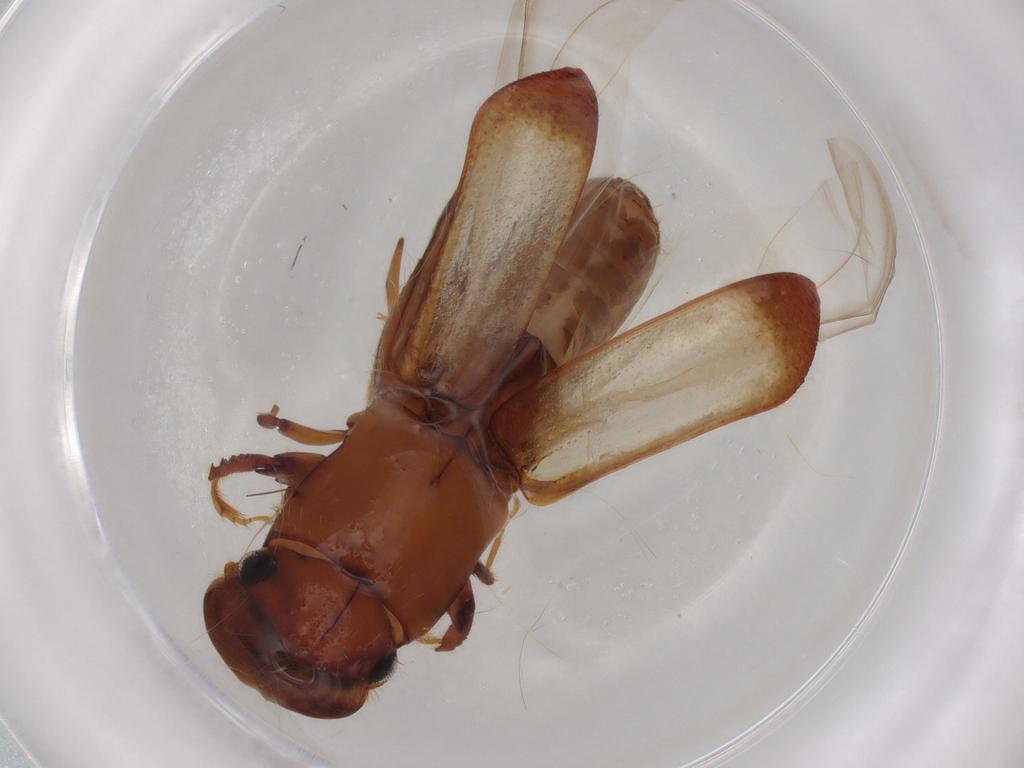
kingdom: Animalia
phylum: Arthropoda
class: Insecta
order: Coleoptera
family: Curculionidae
